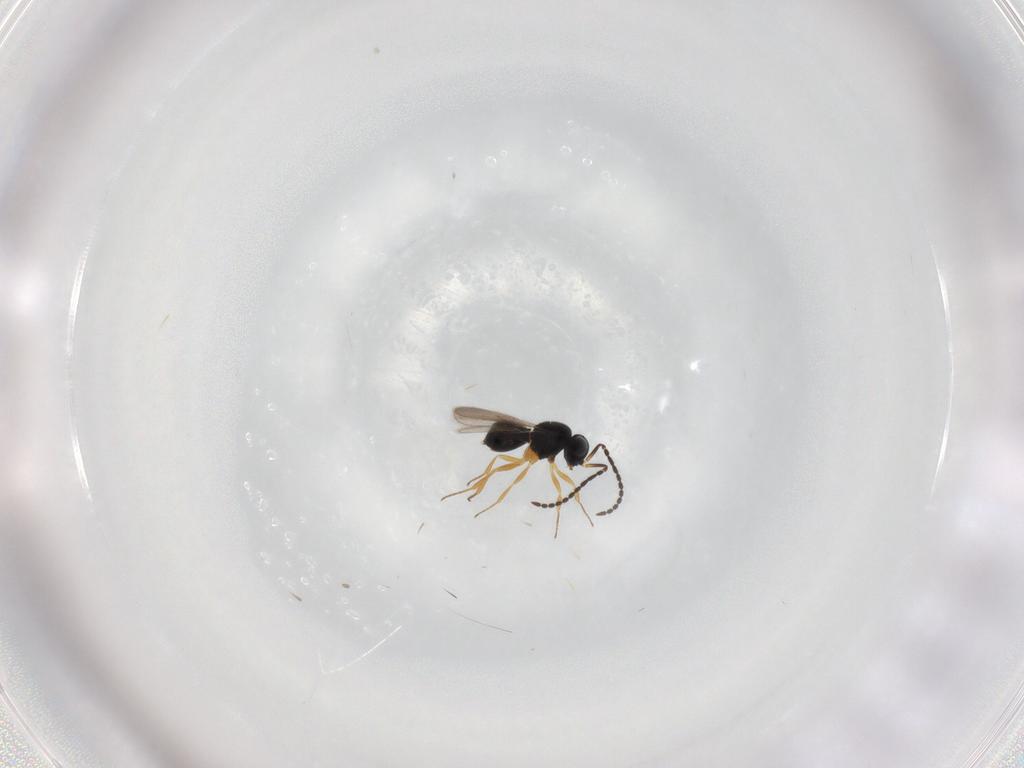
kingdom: Animalia
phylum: Arthropoda
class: Insecta
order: Hymenoptera
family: Scelionidae
